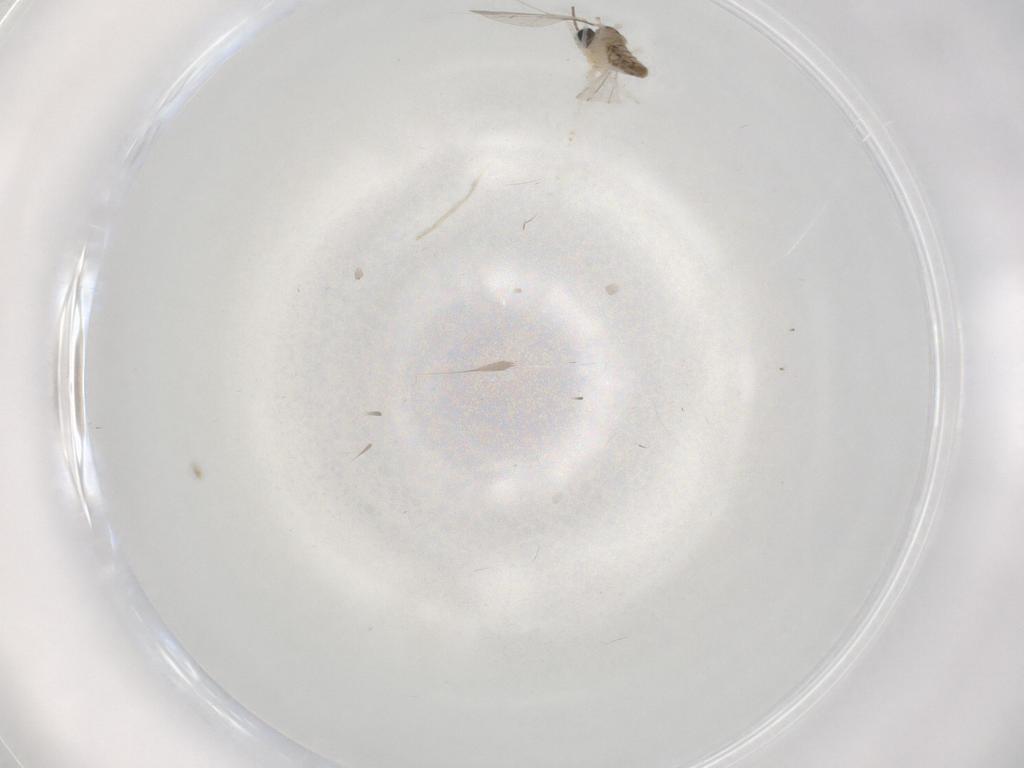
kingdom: Animalia
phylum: Arthropoda
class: Insecta
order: Diptera
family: Cecidomyiidae
